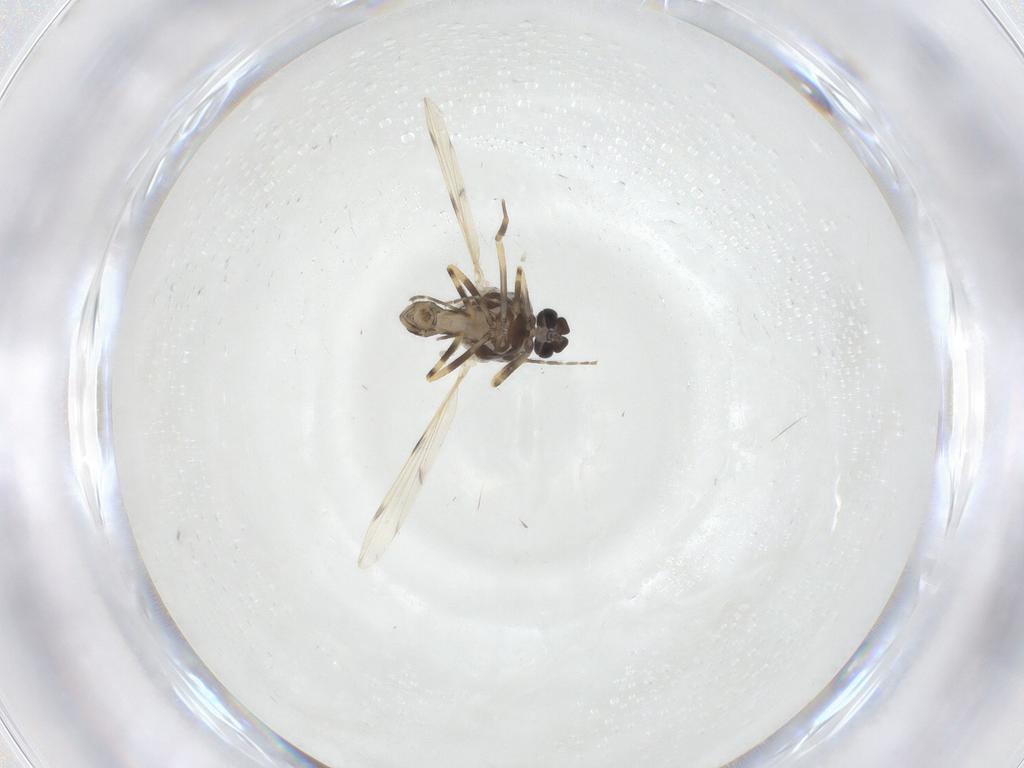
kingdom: Animalia
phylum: Arthropoda
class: Insecta
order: Diptera
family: Ceratopogonidae
